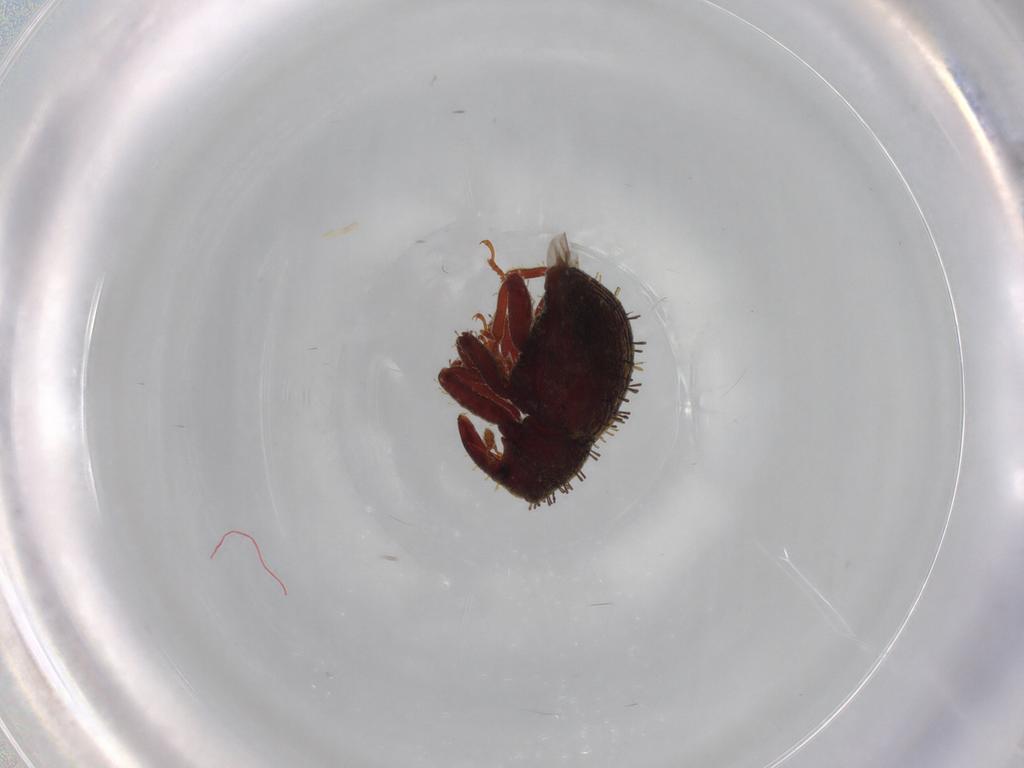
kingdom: Animalia
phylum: Arthropoda
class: Insecta
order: Coleoptera
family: Curculionidae
